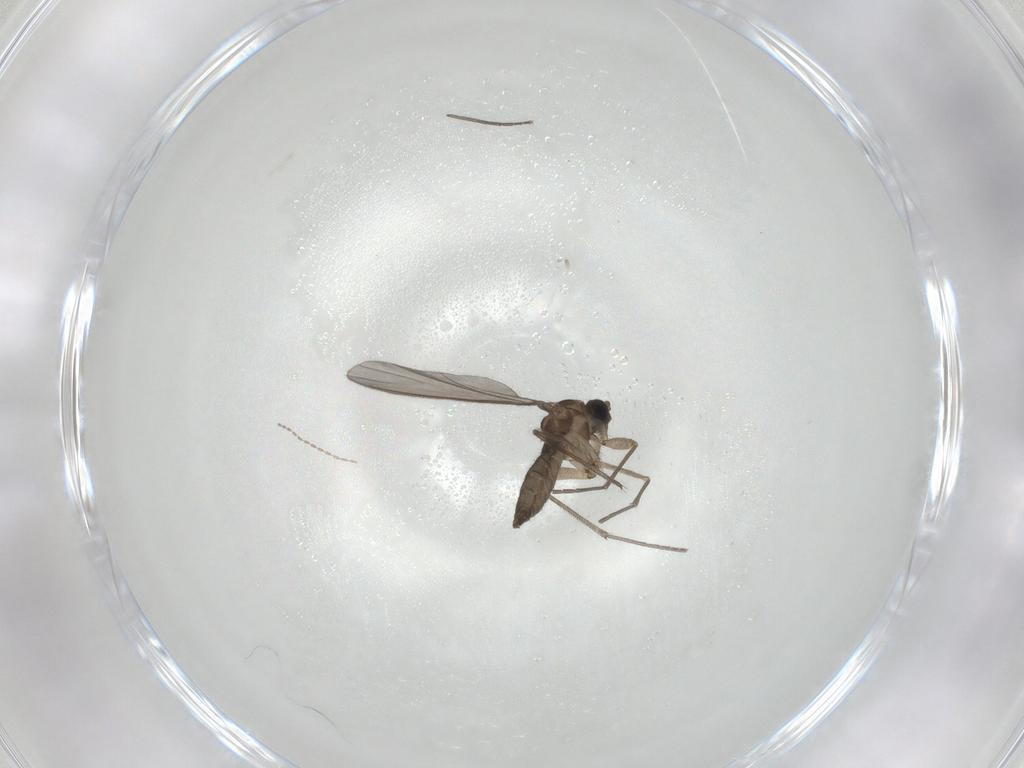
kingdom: Animalia
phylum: Arthropoda
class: Insecta
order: Diptera
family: Sciaridae
